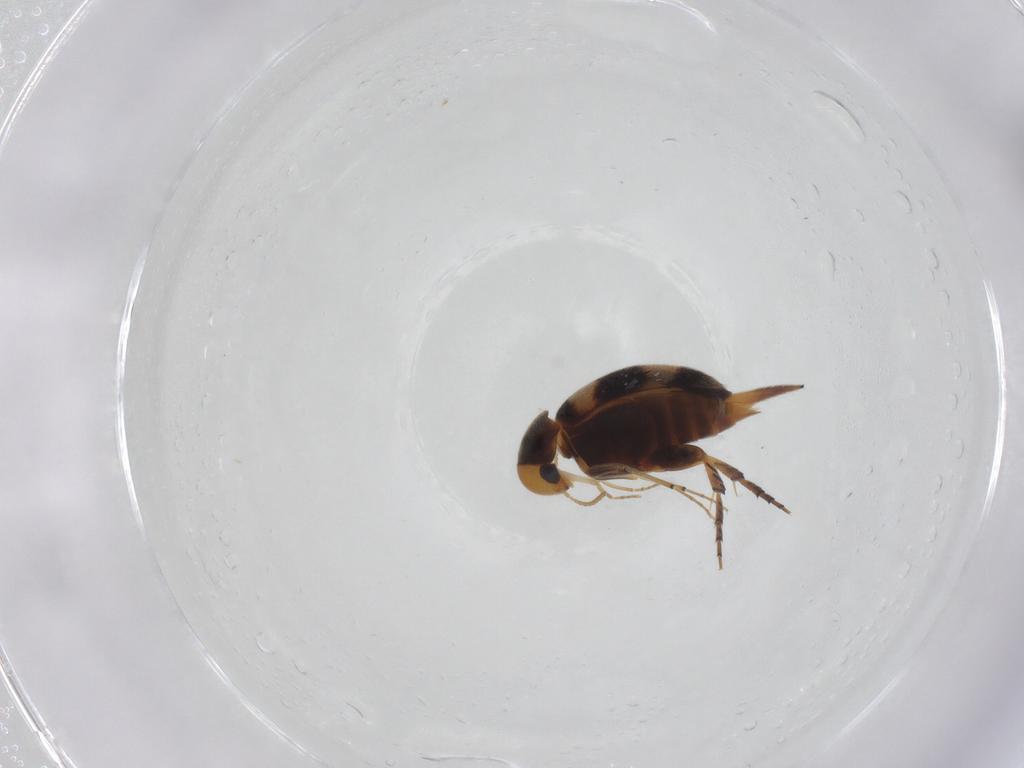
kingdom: Animalia
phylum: Arthropoda
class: Insecta
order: Coleoptera
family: Mordellidae
